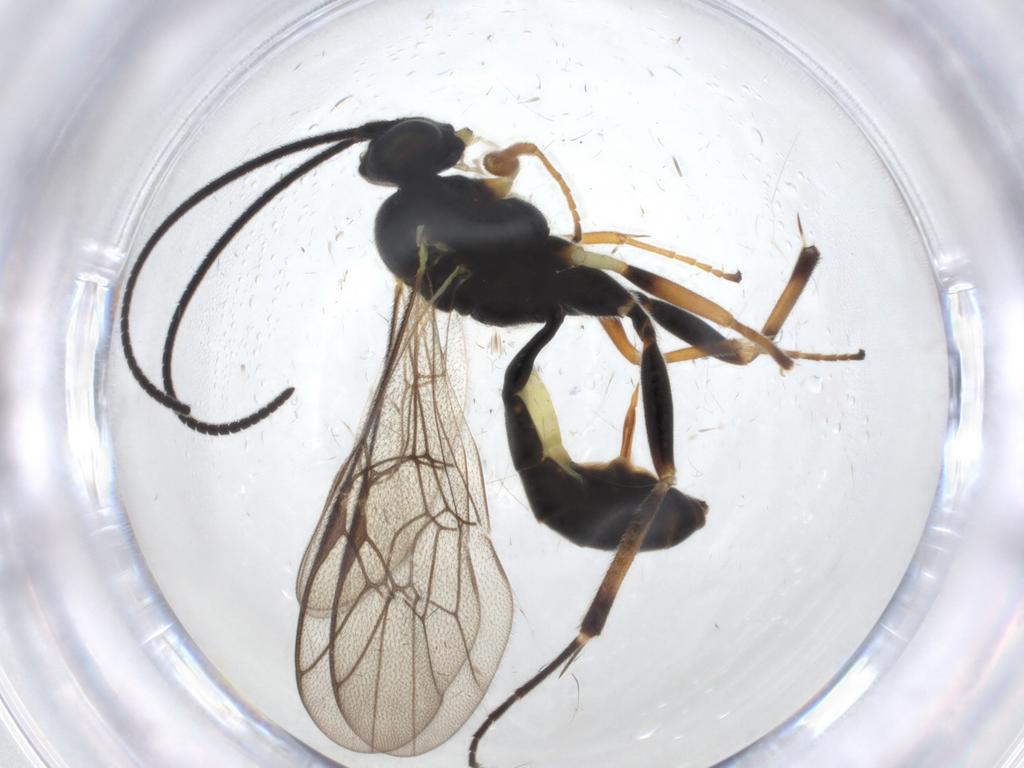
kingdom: Animalia
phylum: Arthropoda
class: Insecta
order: Hymenoptera
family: Ichneumonidae
